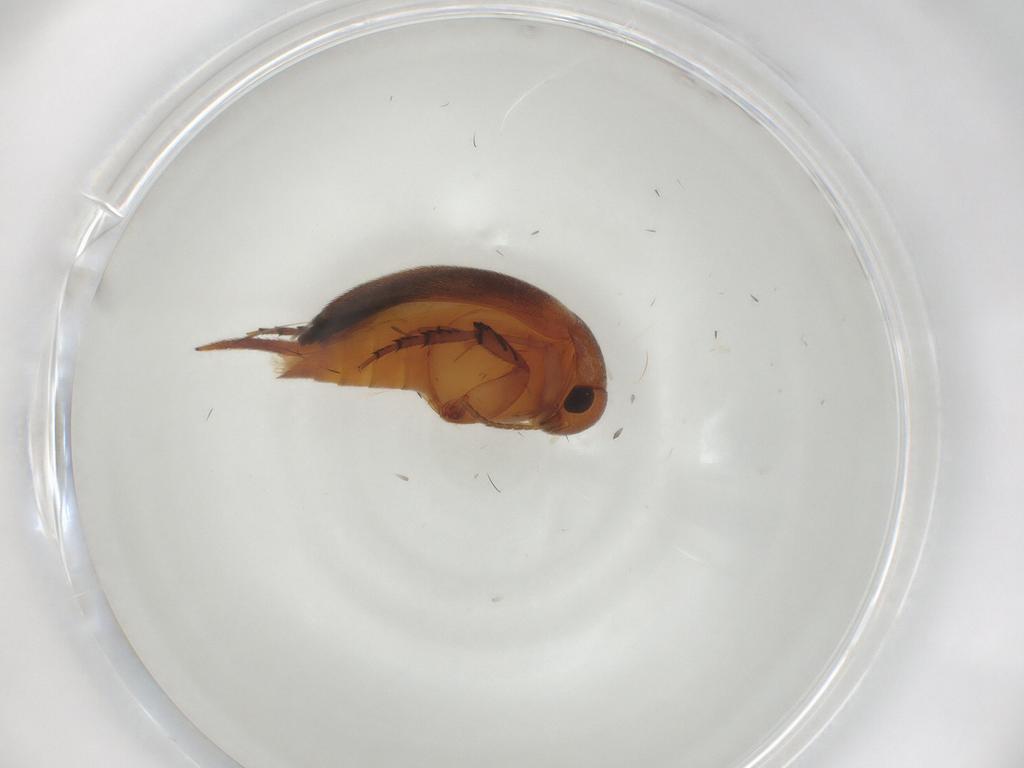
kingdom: Animalia
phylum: Arthropoda
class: Insecta
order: Coleoptera
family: Mordellidae
